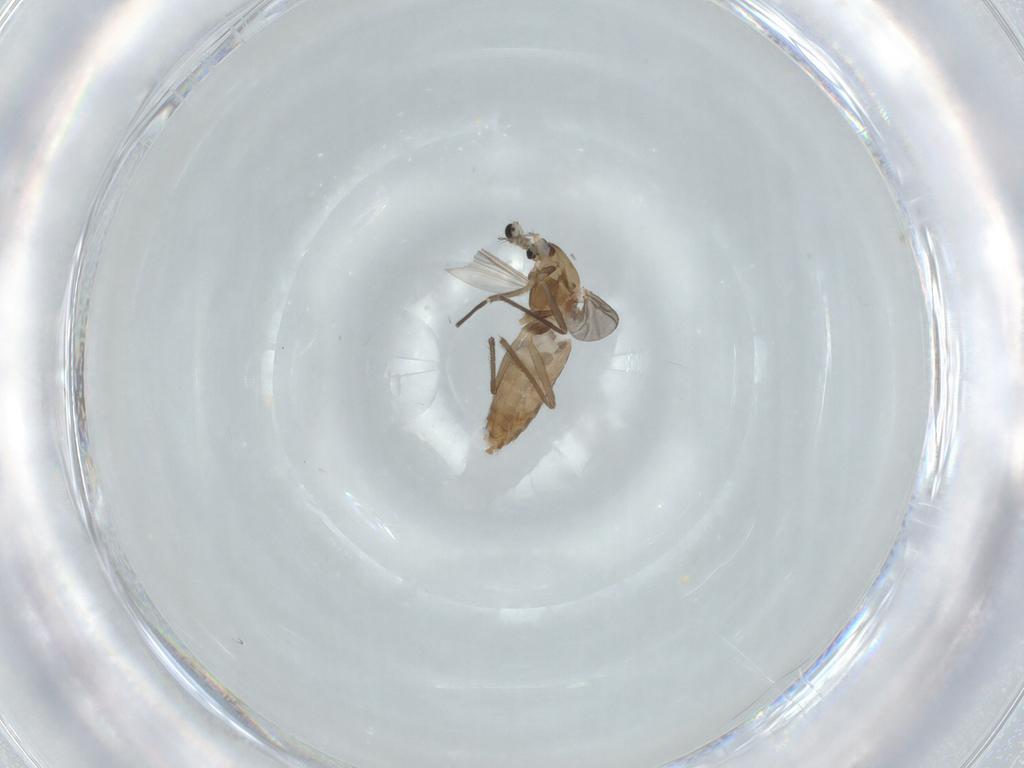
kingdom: Animalia
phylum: Arthropoda
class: Insecta
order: Diptera
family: Chironomidae
